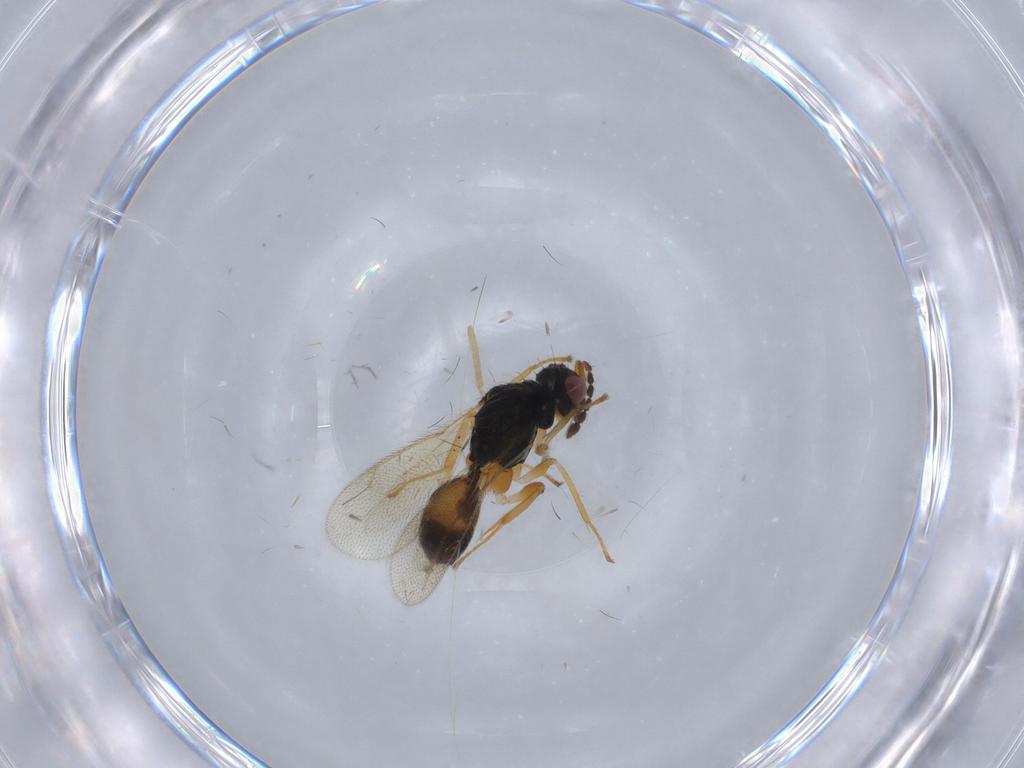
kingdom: Animalia
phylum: Arthropoda
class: Insecta
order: Hymenoptera
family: Eulophidae
